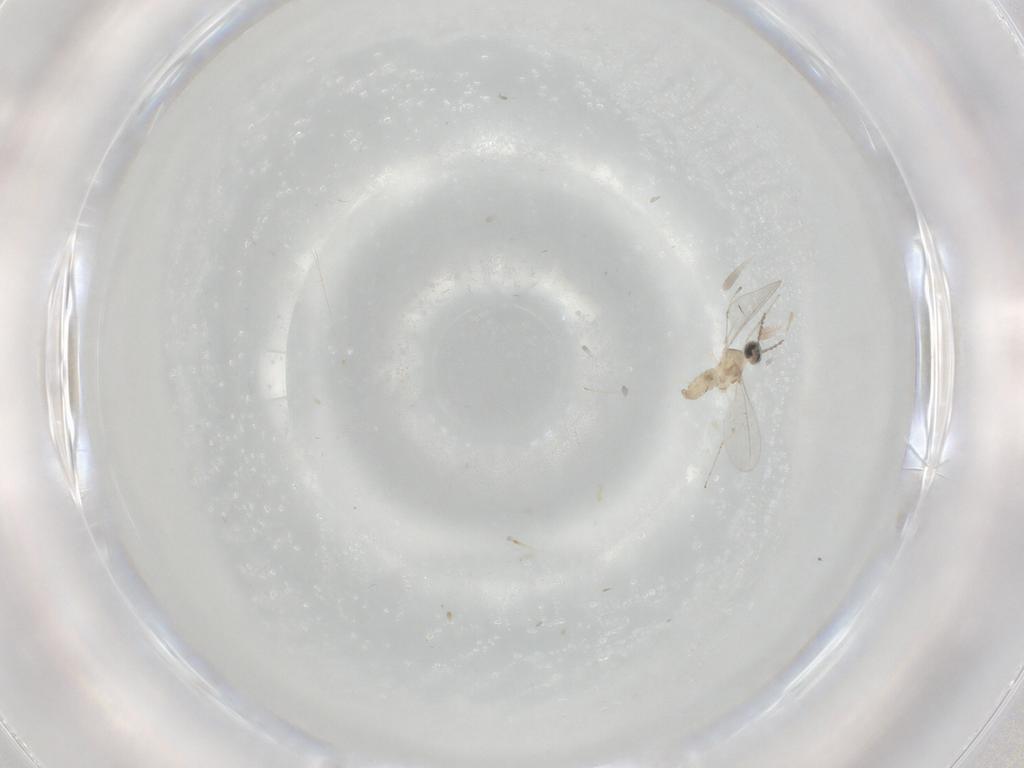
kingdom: Animalia
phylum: Arthropoda
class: Insecta
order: Diptera
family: Cecidomyiidae
